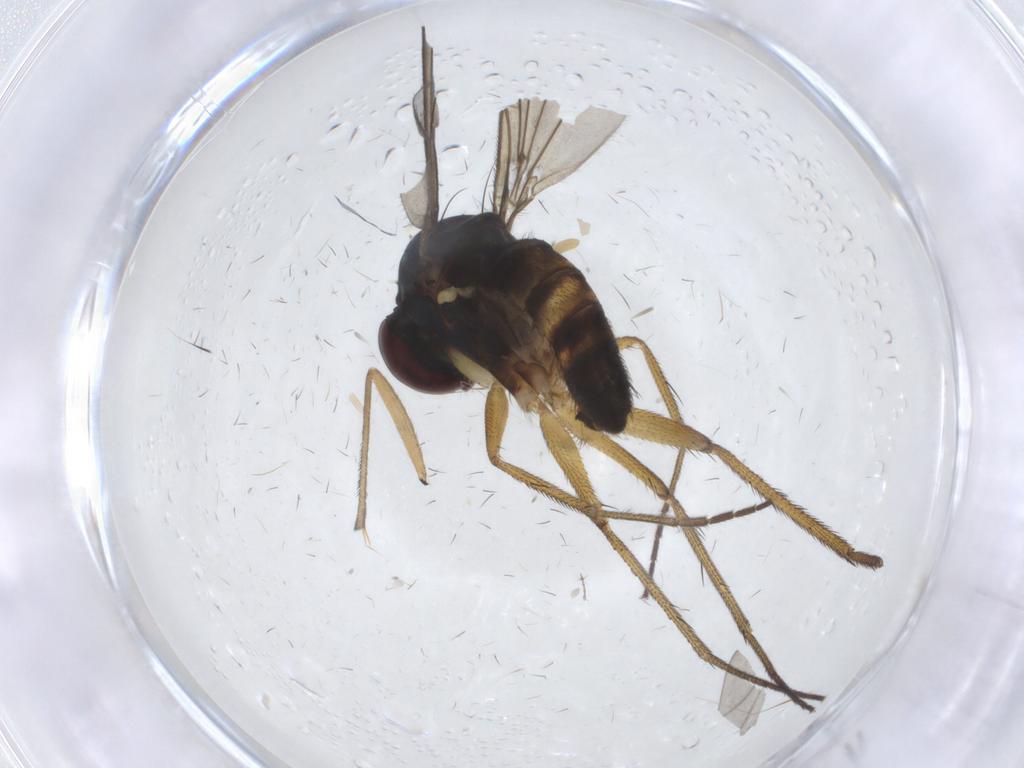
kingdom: Animalia
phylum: Arthropoda
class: Insecta
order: Diptera
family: Dolichopodidae
